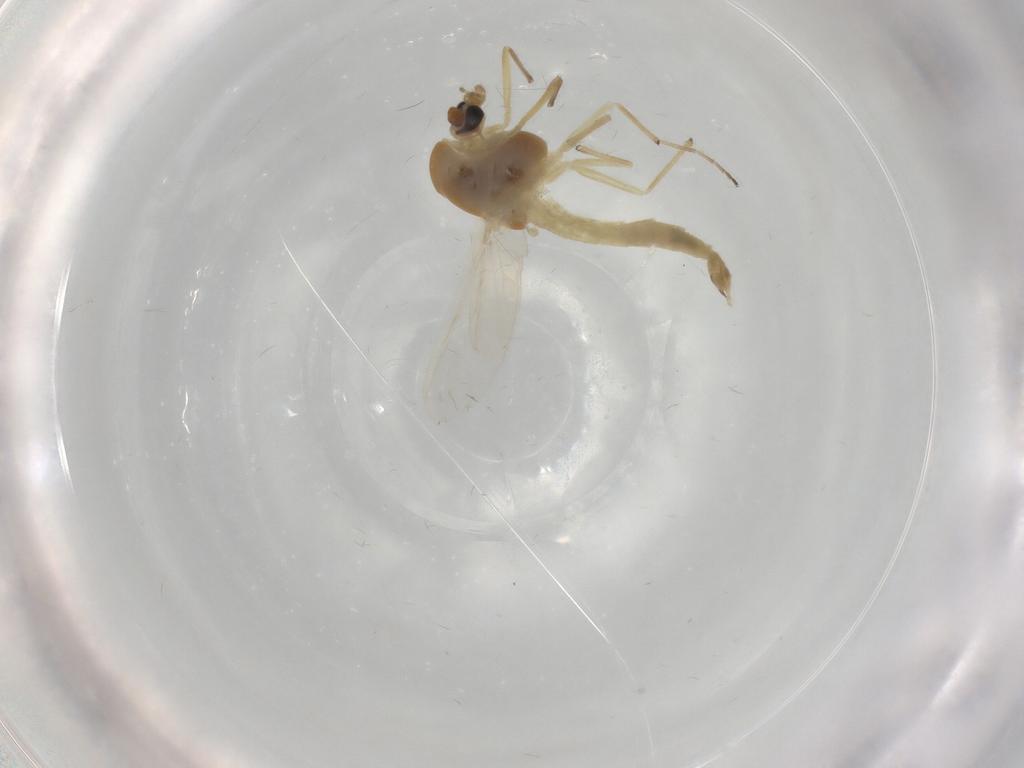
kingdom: Animalia
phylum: Arthropoda
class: Insecta
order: Diptera
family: Chironomidae
